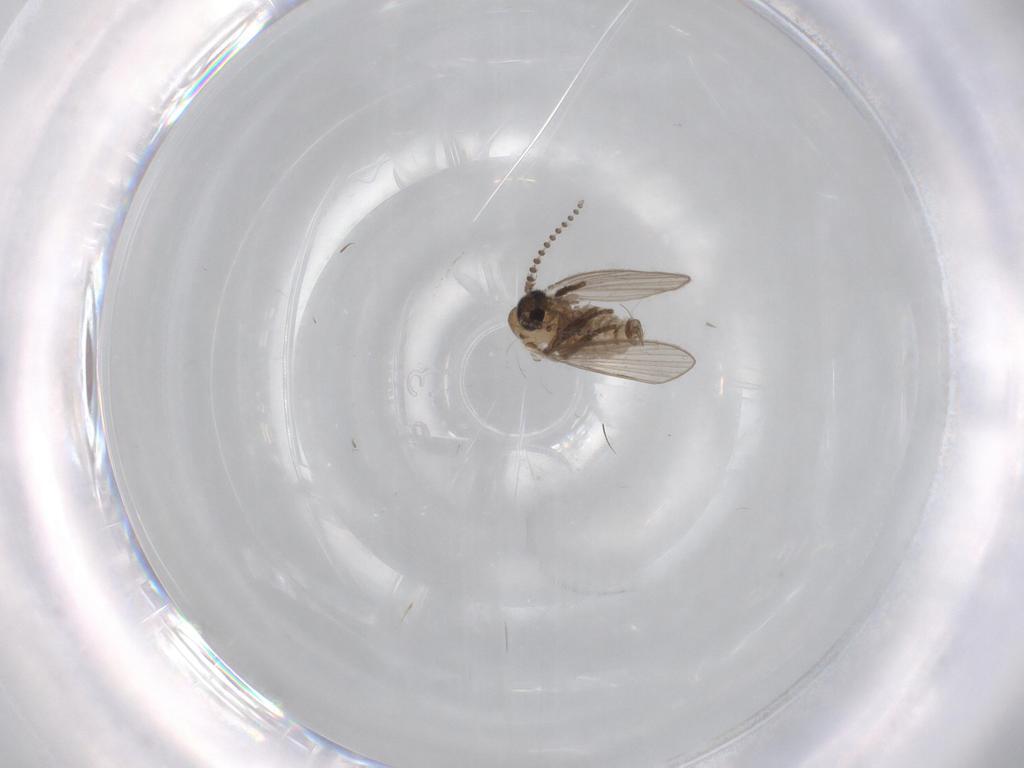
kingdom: Animalia
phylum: Arthropoda
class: Insecta
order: Diptera
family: Psychodidae
